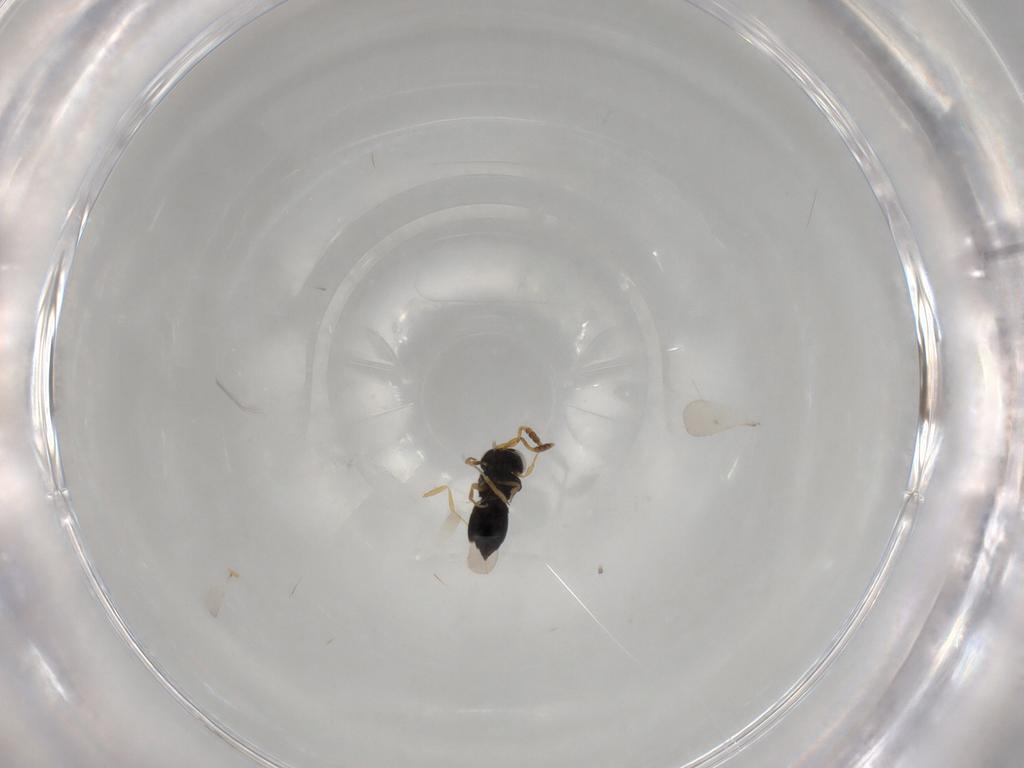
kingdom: Animalia
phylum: Arthropoda
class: Insecta
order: Hymenoptera
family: Scelionidae
